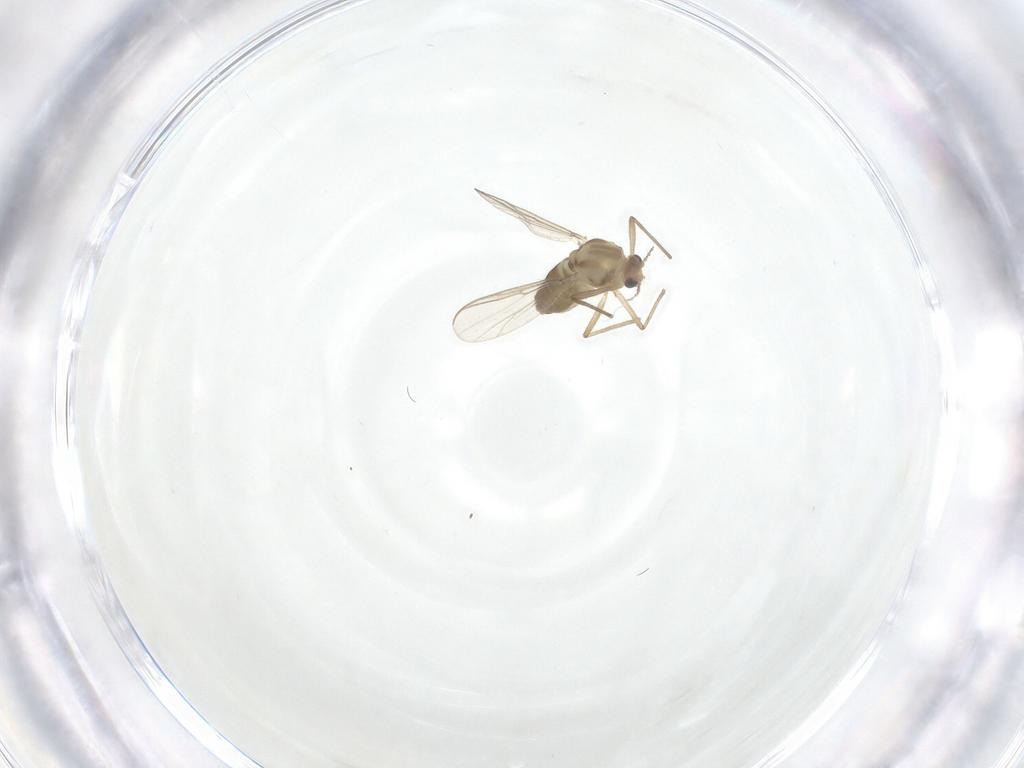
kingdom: Animalia
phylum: Arthropoda
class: Insecta
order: Diptera
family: Chironomidae
